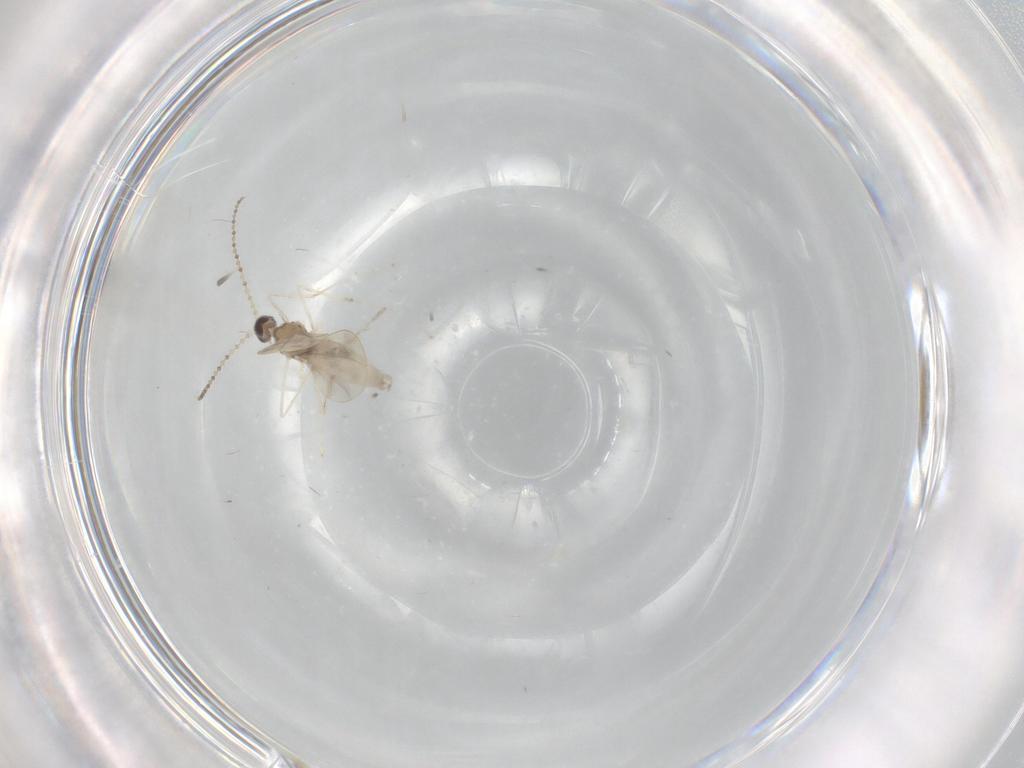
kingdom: Animalia
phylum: Arthropoda
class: Insecta
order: Diptera
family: Cecidomyiidae
